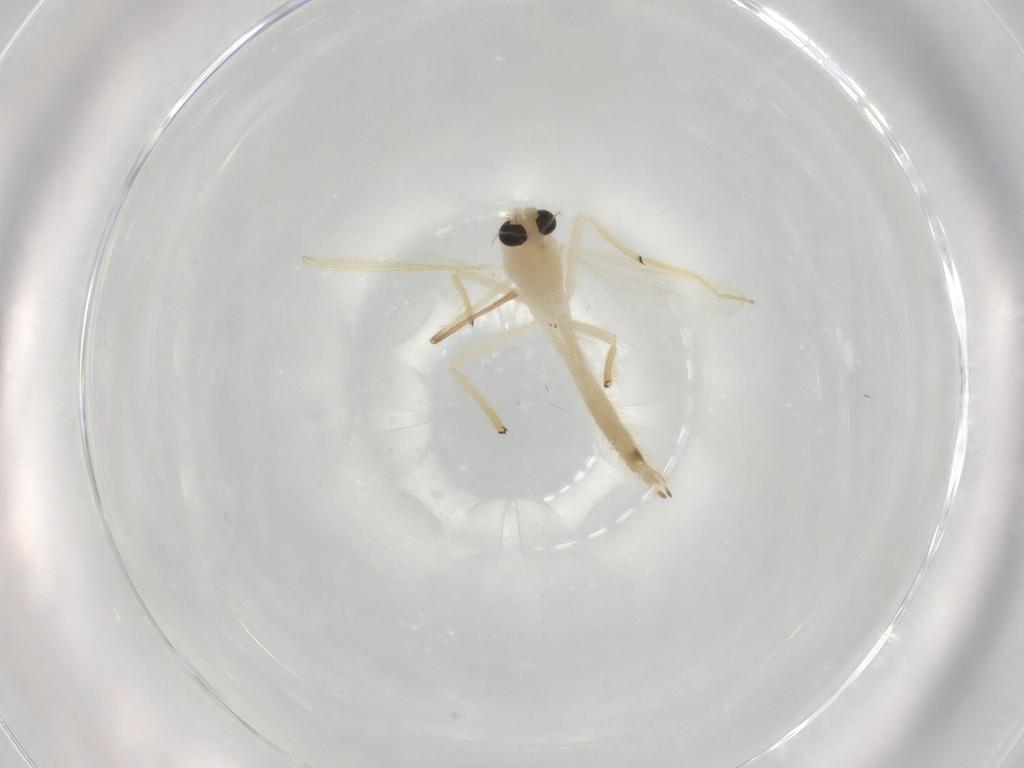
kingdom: Animalia
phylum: Arthropoda
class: Insecta
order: Diptera
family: Chironomidae
